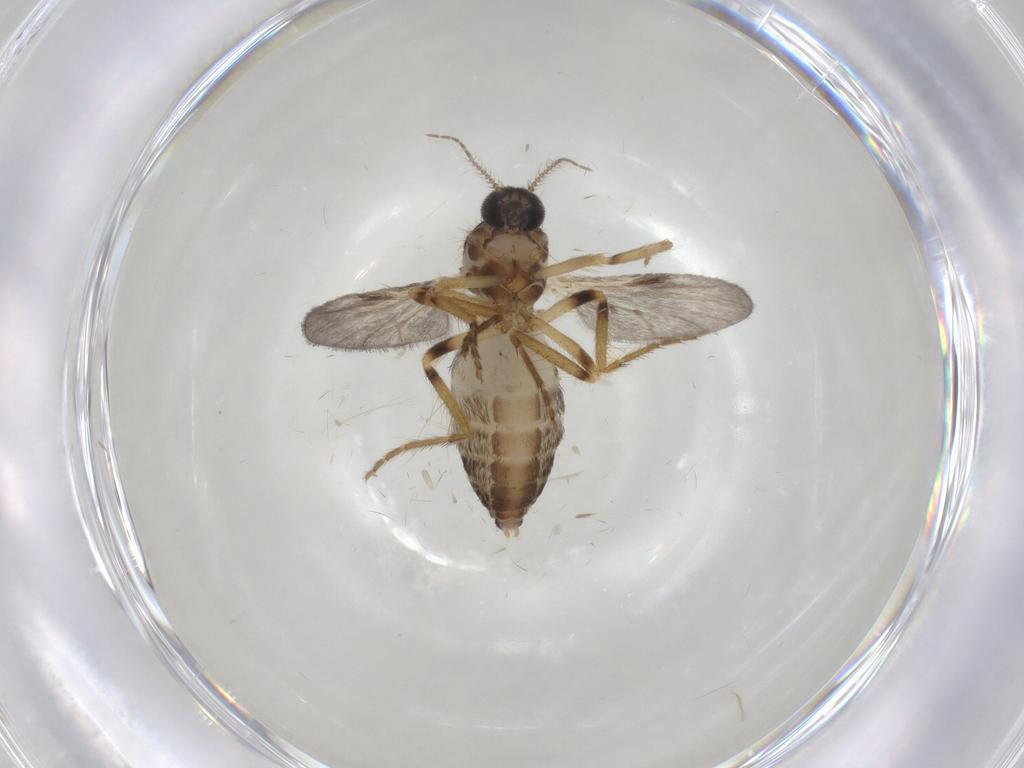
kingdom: Animalia
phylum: Arthropoda
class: Insecta
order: Diptera
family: Ceratopogonidae
